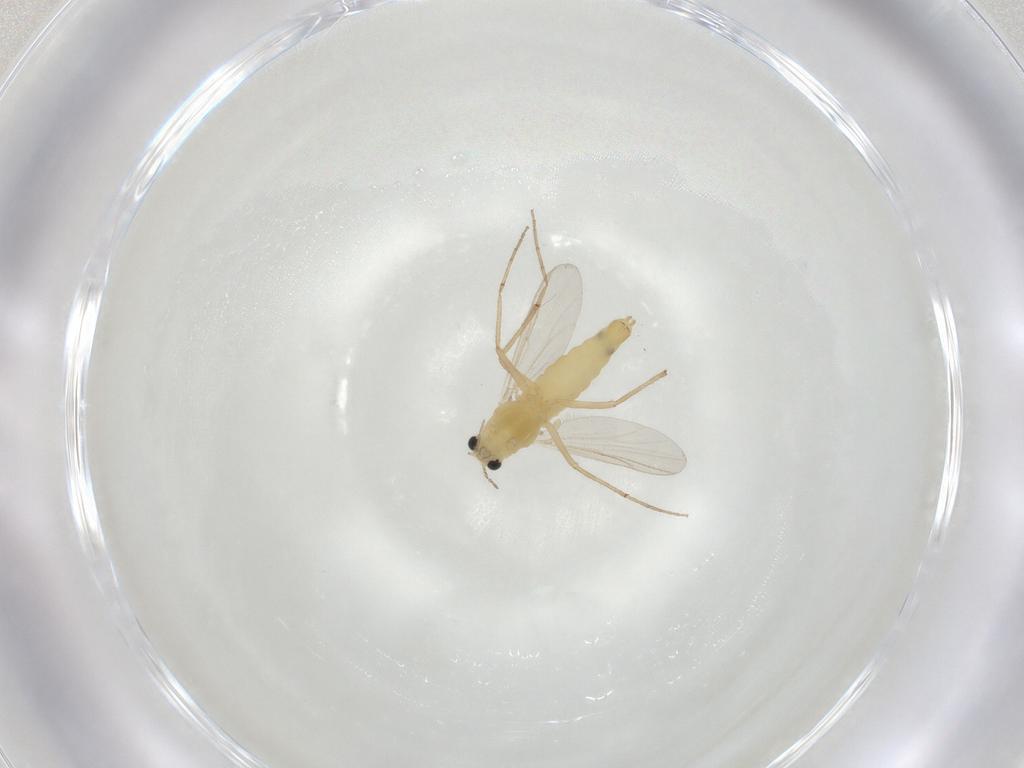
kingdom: Animalia
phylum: Arthropoda
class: Insecta
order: Diptera
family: Chironomidae
